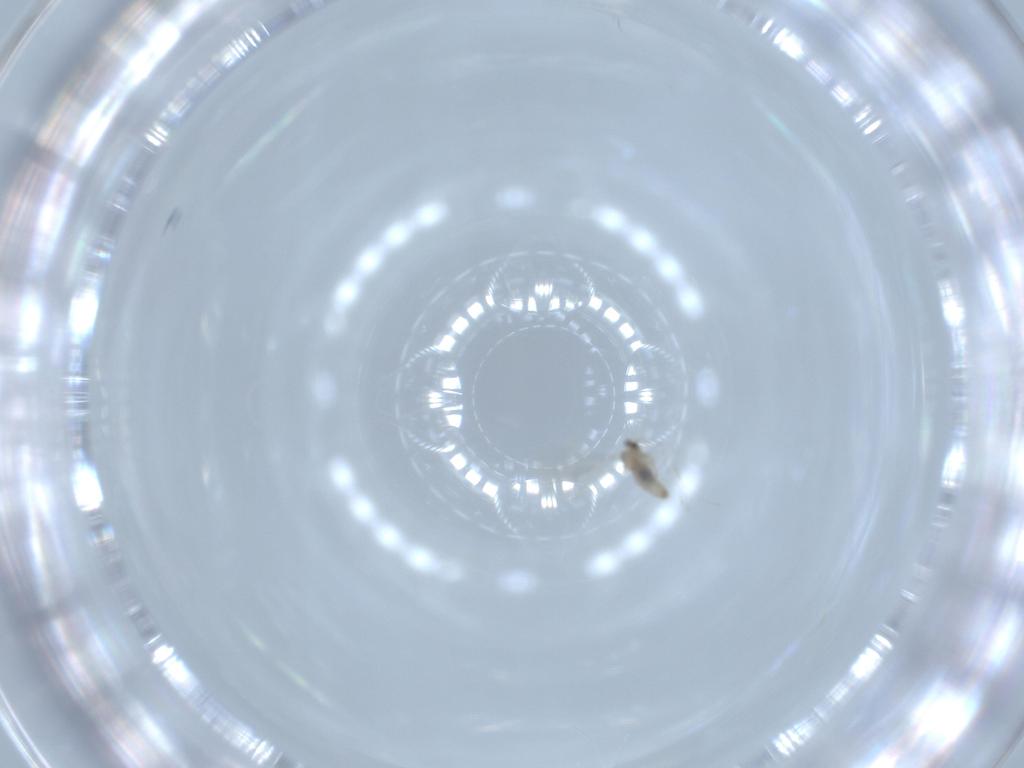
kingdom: Animalia
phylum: Arthropoda
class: Insecta
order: Diptera
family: Cecidomyiidae
